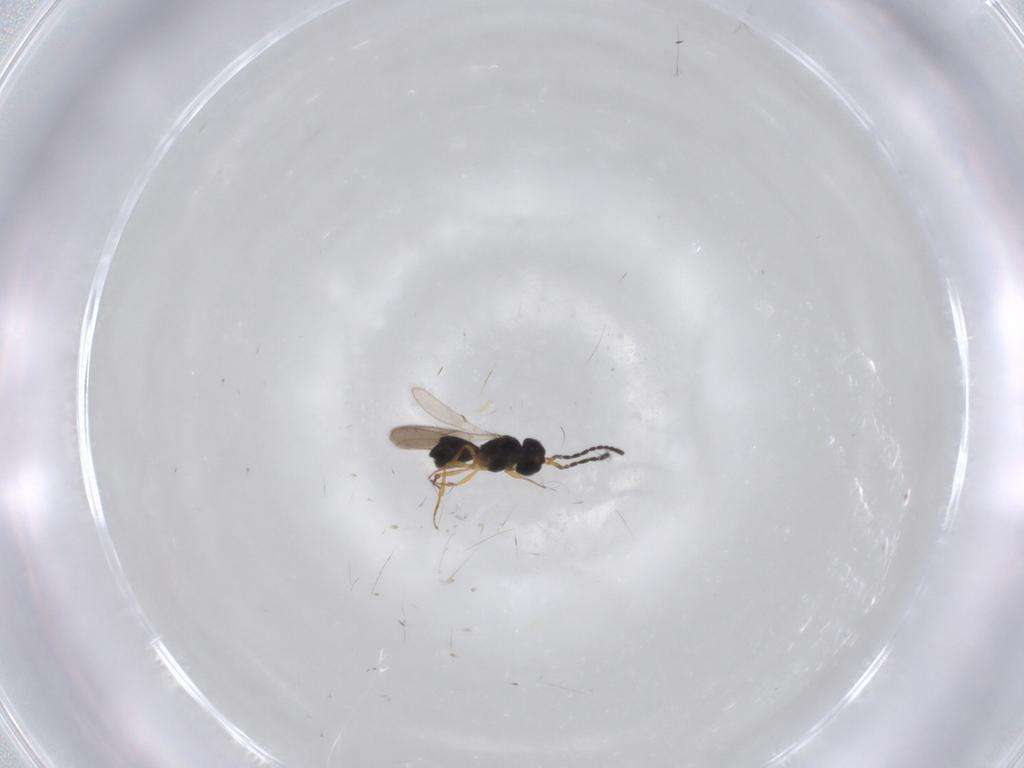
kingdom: Animalia
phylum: Arthropoda
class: Insecta
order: Hymenoptera
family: Scelionidae
